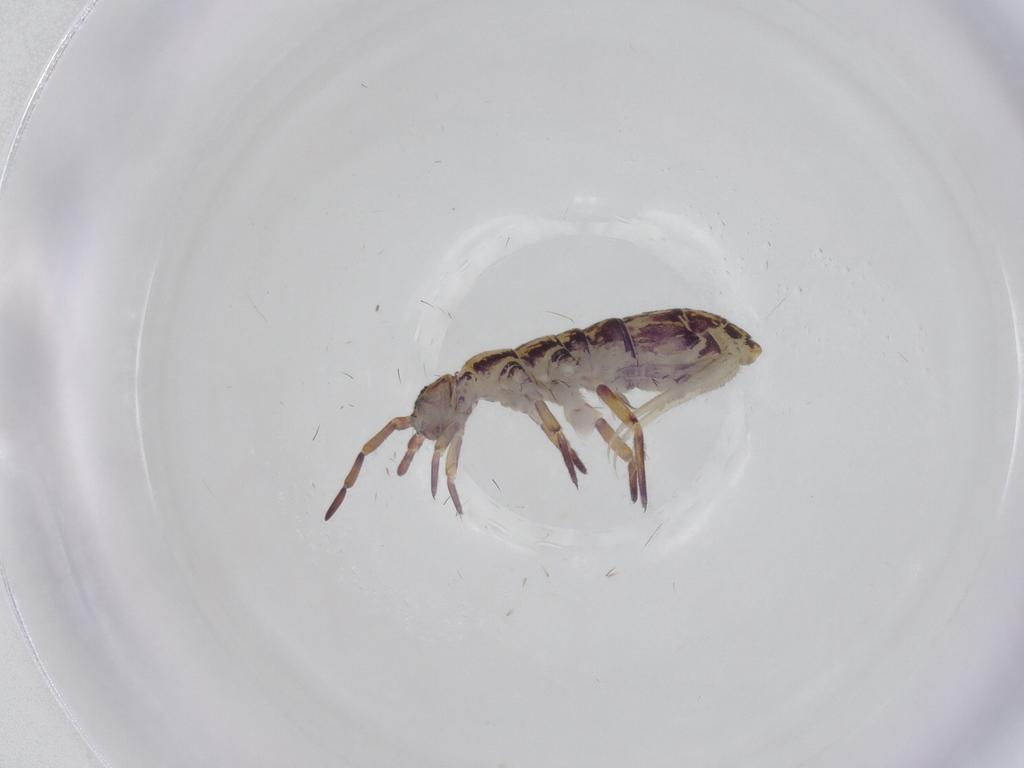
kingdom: Animalia
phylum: Arthropoda
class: Collembola
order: Entomobryomorpha
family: Isotomidae
